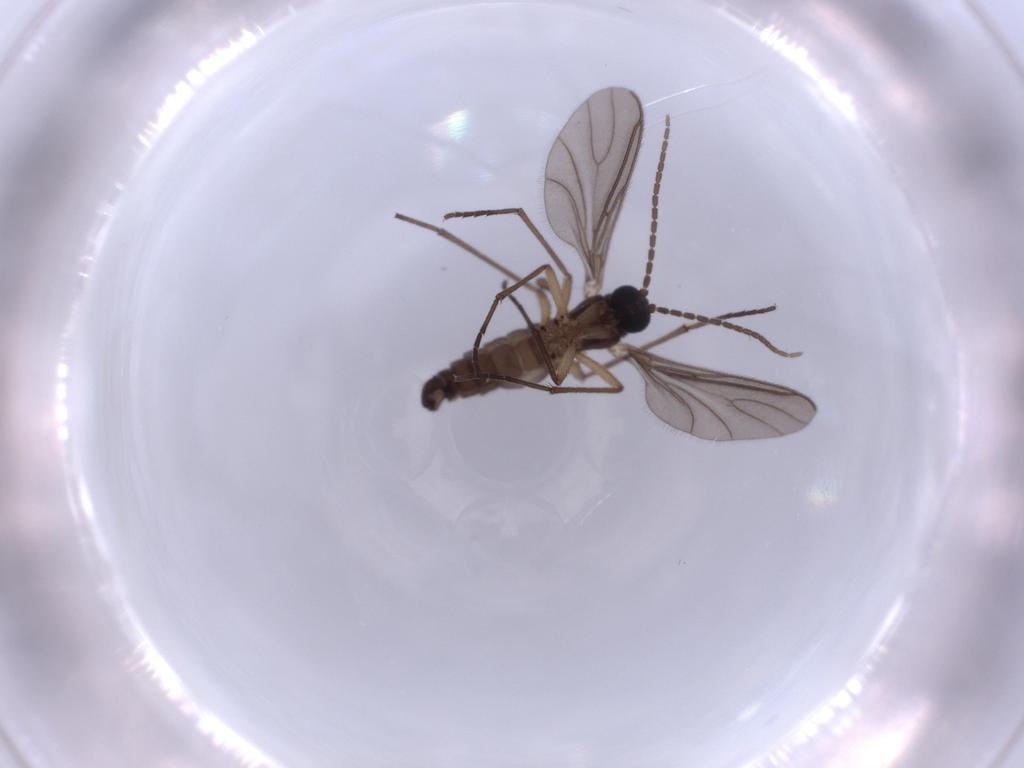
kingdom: Animalia
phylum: Arthropoda
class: Insecta
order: Diptera
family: Sciaridae
